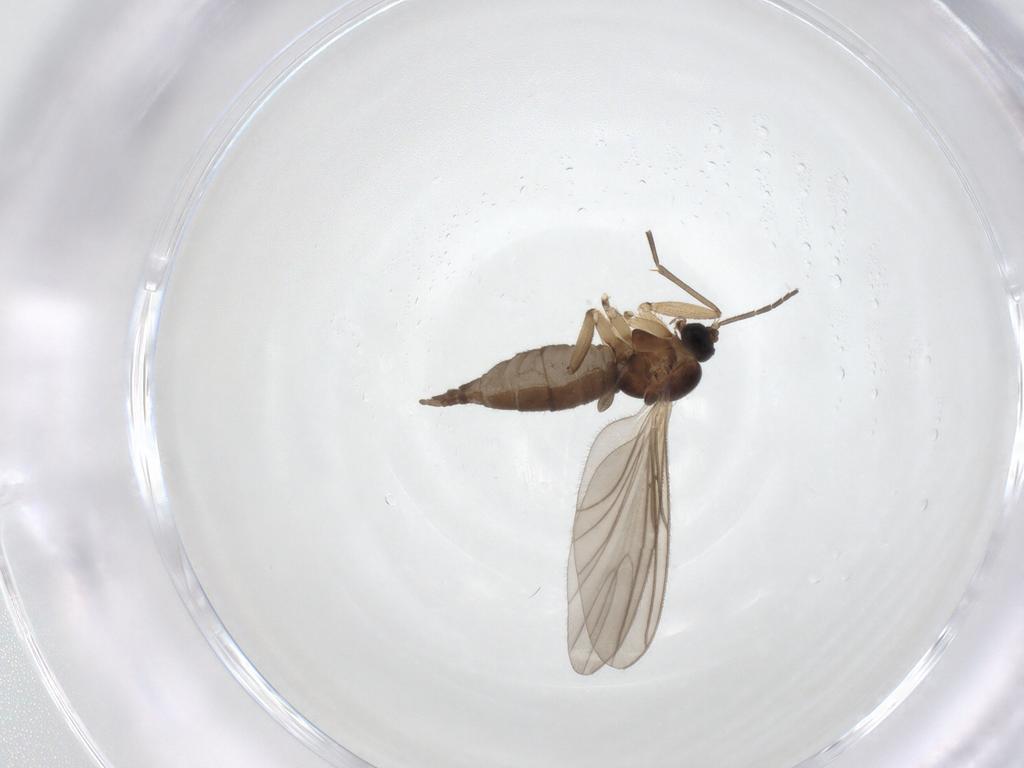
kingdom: Animalia
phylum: Arthropoda
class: Insecta
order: Diptera
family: Sciaridae
